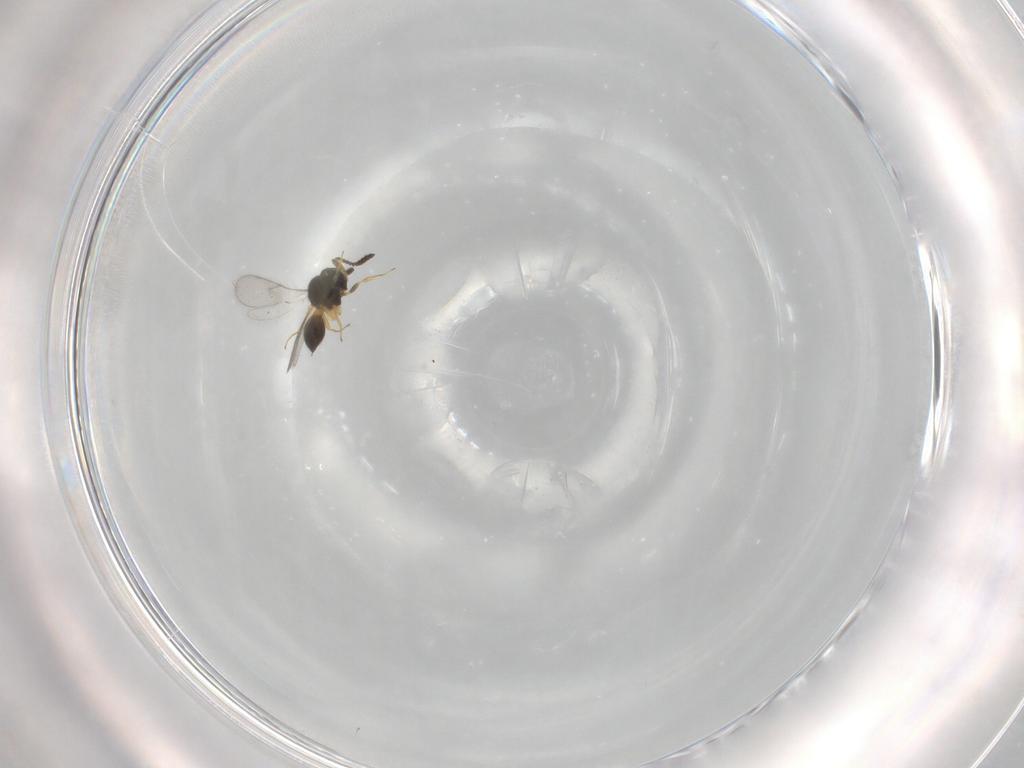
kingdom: Animalia
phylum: Arthropoda
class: Insecta
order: Hymenoptera
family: Scelionidae
